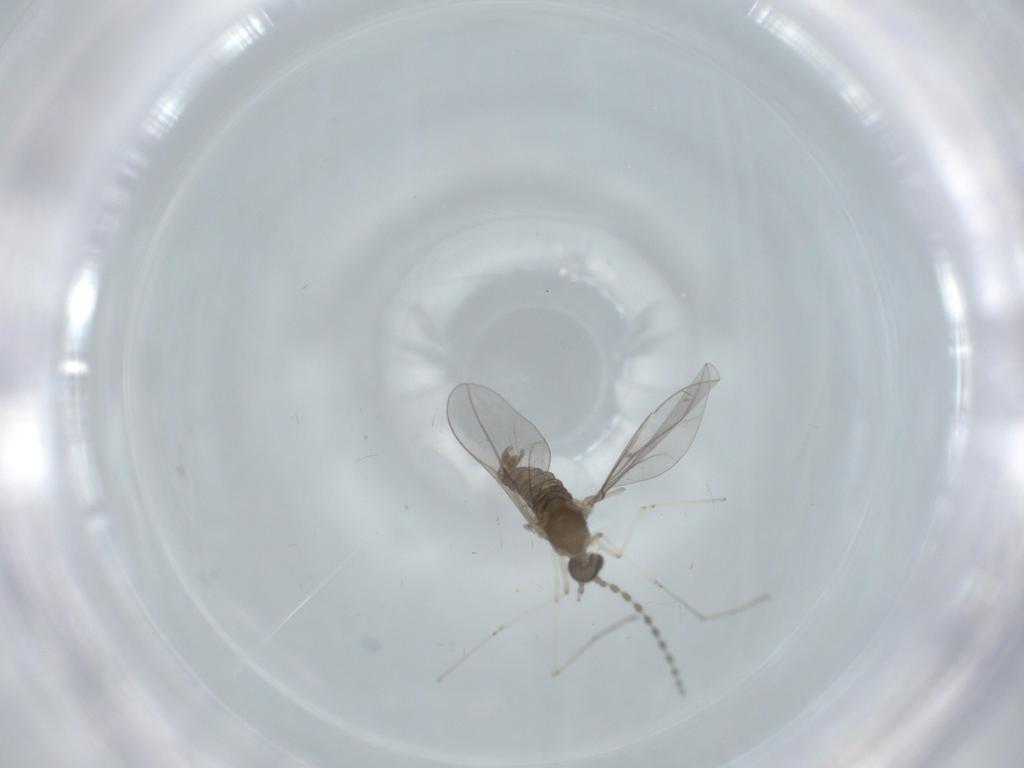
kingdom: Animalia
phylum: Arthropoda
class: Insecta
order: Diptera
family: Cecidomyiidae
